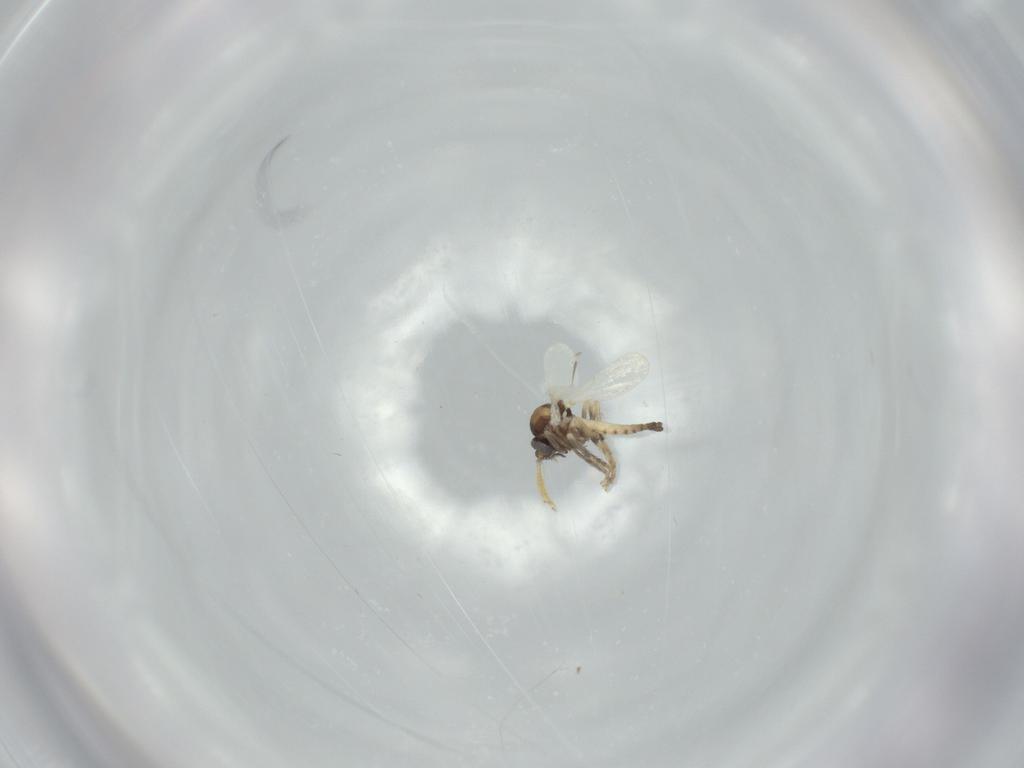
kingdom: Animalia
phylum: Arthropoda
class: Insecta
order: Diptera
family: Ceratopogonidae
